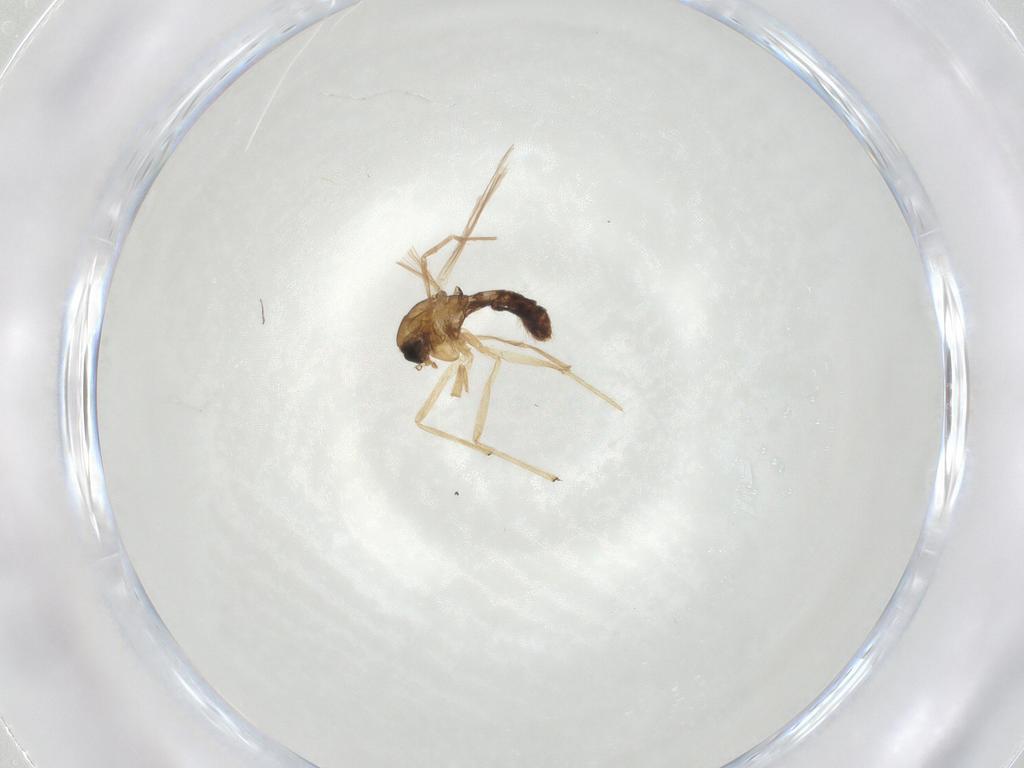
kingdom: Animalia
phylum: Arthropoda
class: Insecta
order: Diptera
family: Chironomidae
